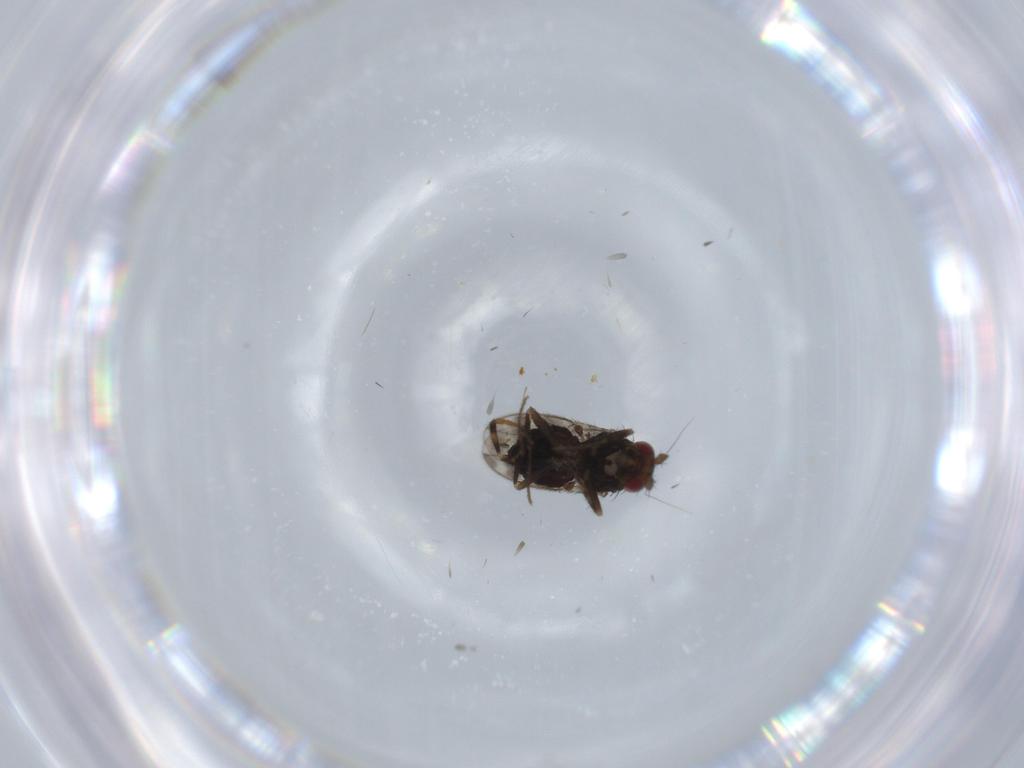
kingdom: Animalia
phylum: Arthropoda
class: Insecta
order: Diptera
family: Sphaeroceridae
